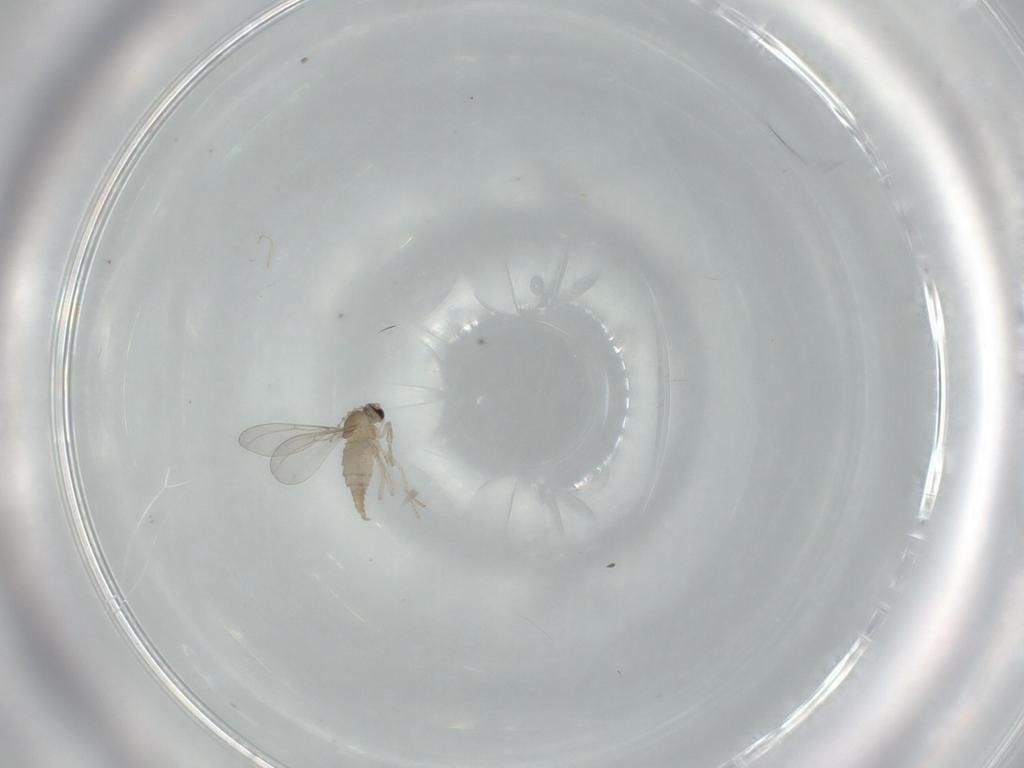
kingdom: Animalia
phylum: Arthropoda
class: Insecta
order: Diptera
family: Cecidomyiidae
